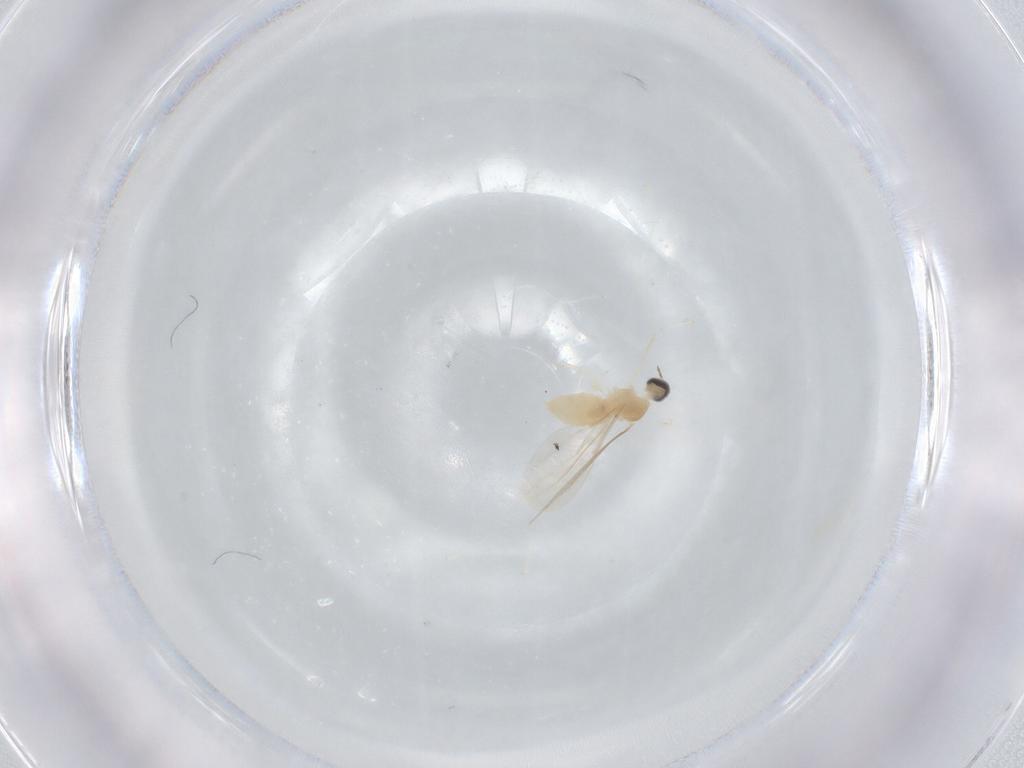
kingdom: Animalia
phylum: Arthropoda
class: Insecta
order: Diptera
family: Cecidomyiidae
